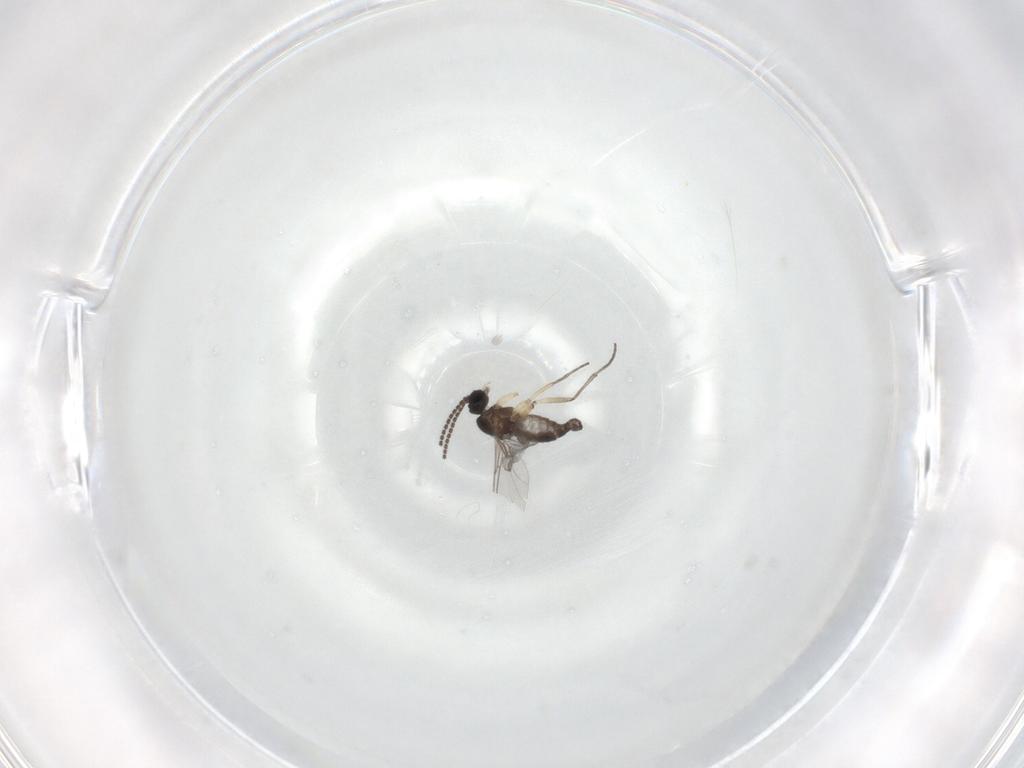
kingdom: Animalia
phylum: Arthropoda
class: Insecta
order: Diptera
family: Sciaridae
